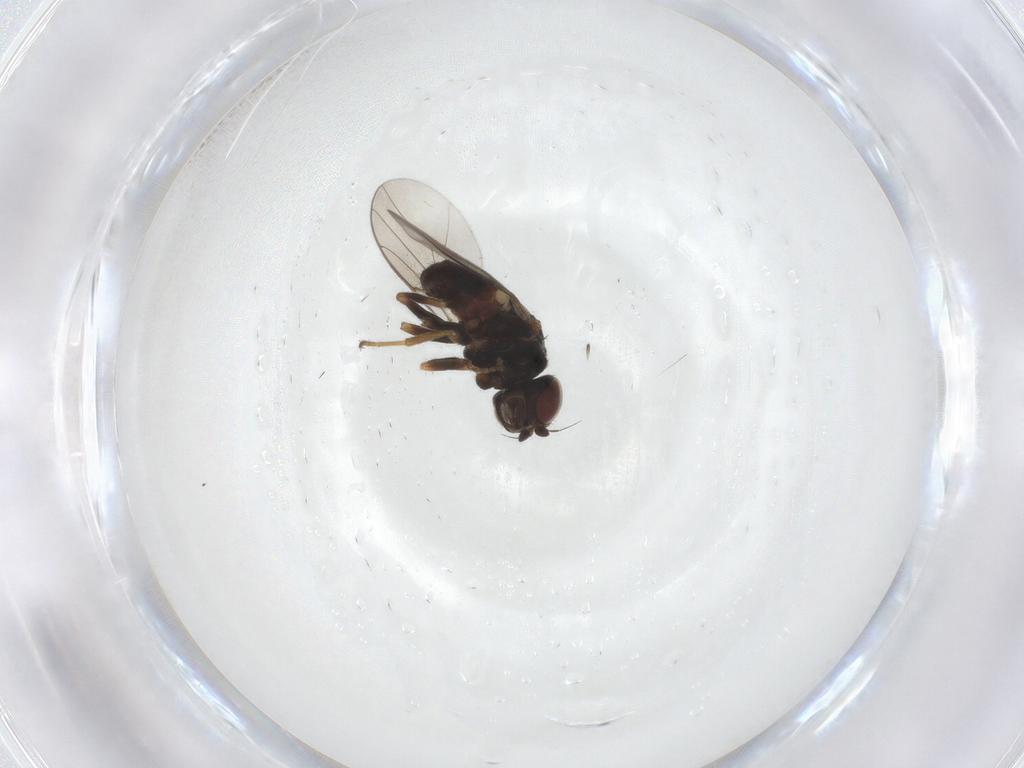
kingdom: Animalia
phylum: Arthropoda
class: Insecta
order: Diptera
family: Chloropidae
